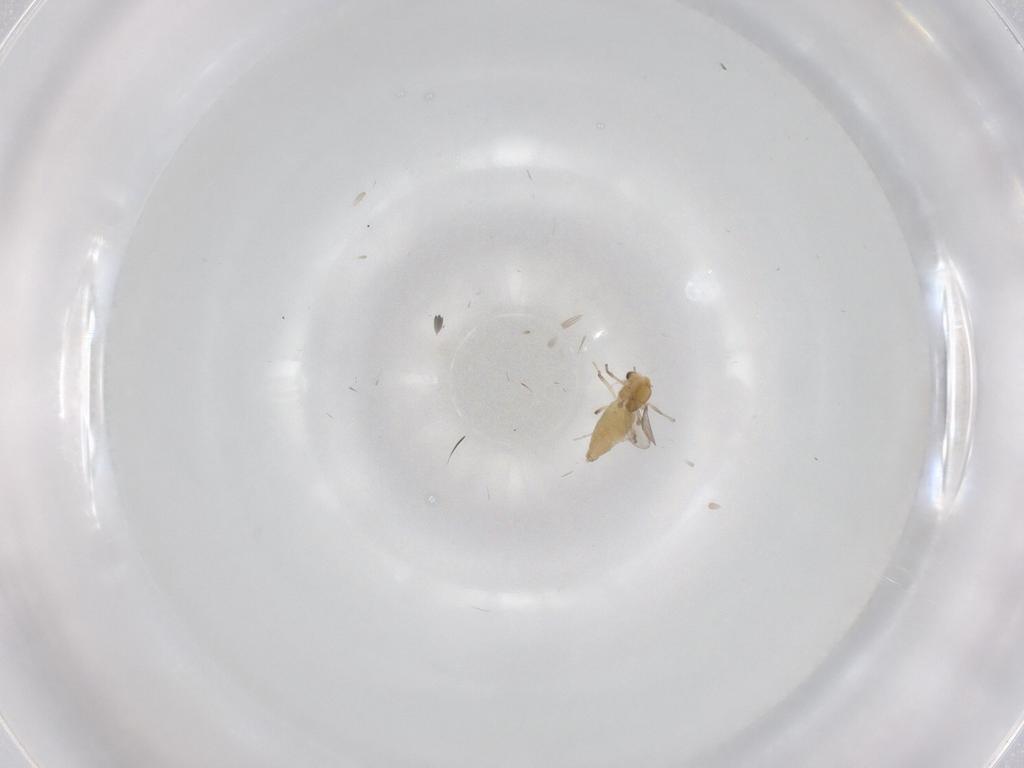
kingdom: Animalia
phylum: Arthropoda
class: Insecta
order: Diptera
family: Chironomidae
